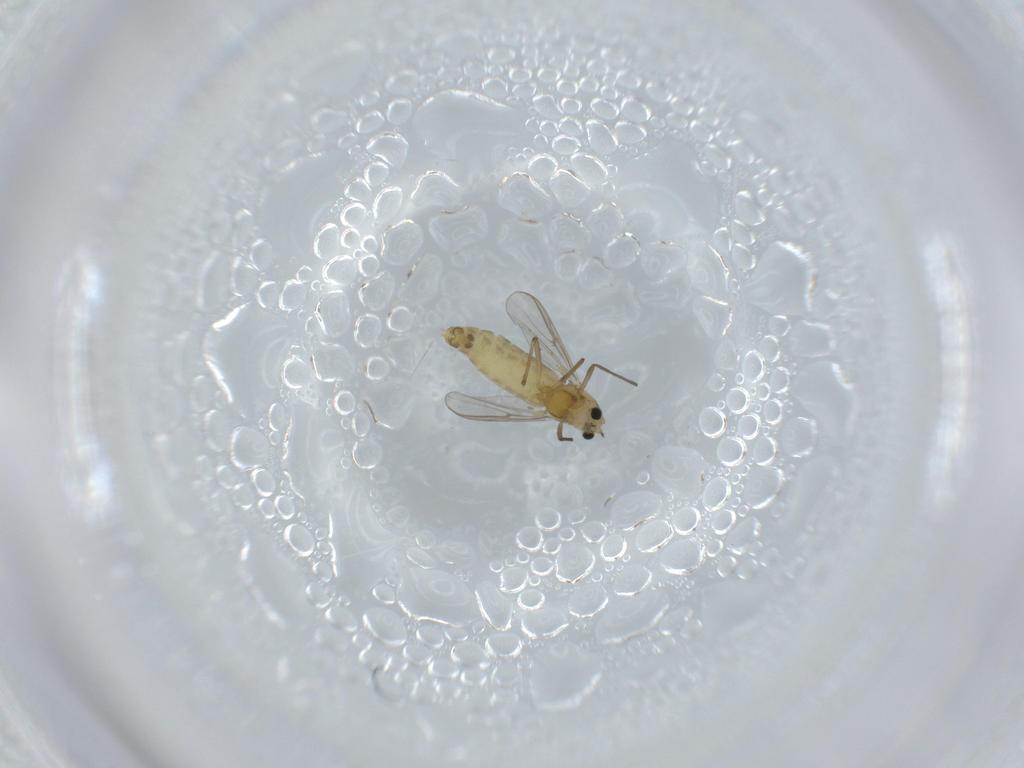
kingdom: Animalia
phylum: Arthropoda
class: Insecta
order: Diptera
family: Chironomidae
